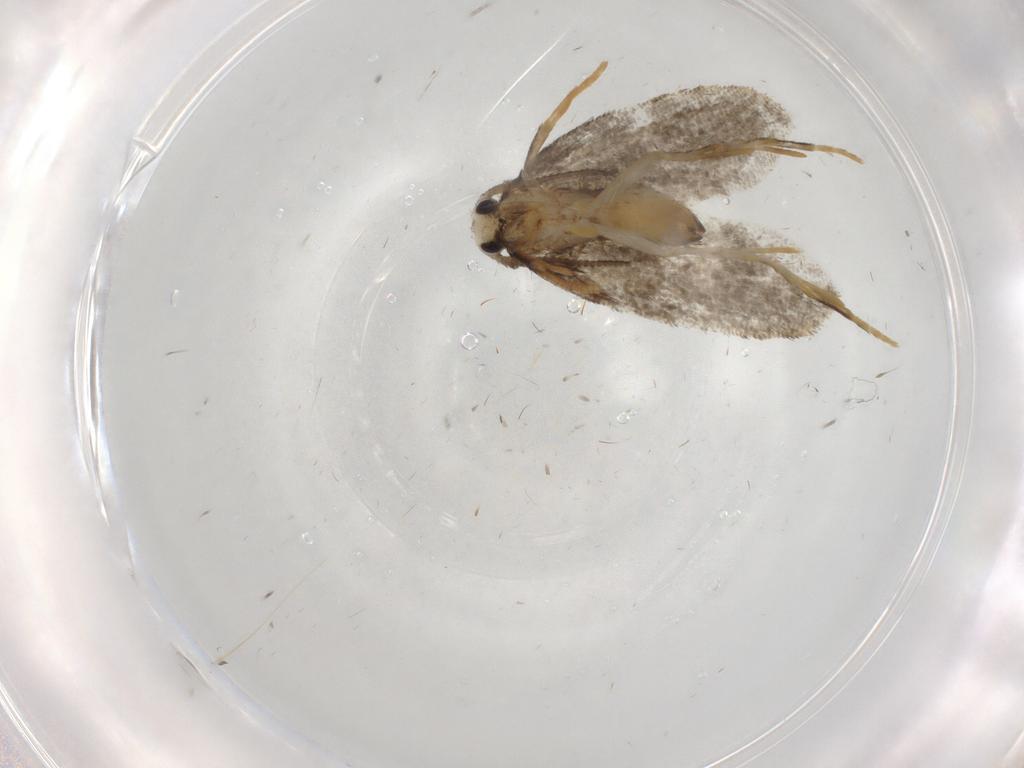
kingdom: Animalia
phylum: Arthropoda
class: Insecta
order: Lepidoptera
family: Psychidae
